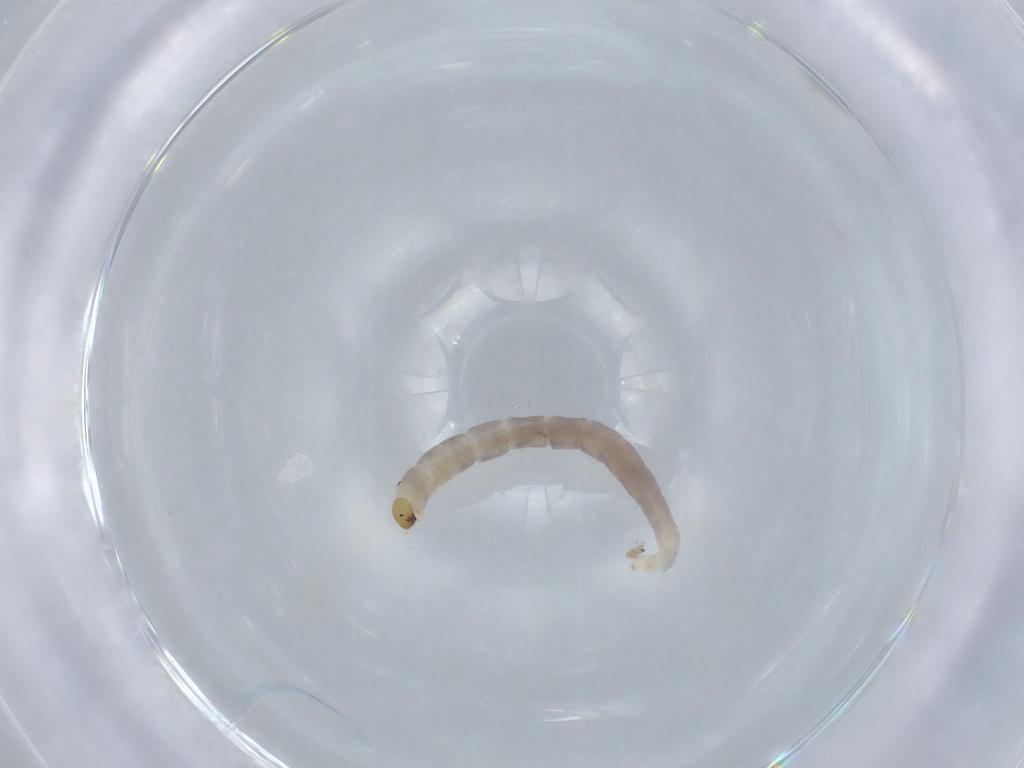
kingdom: Animalia
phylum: Arthropoda
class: Insecta
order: Diptera
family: Chironomidae
